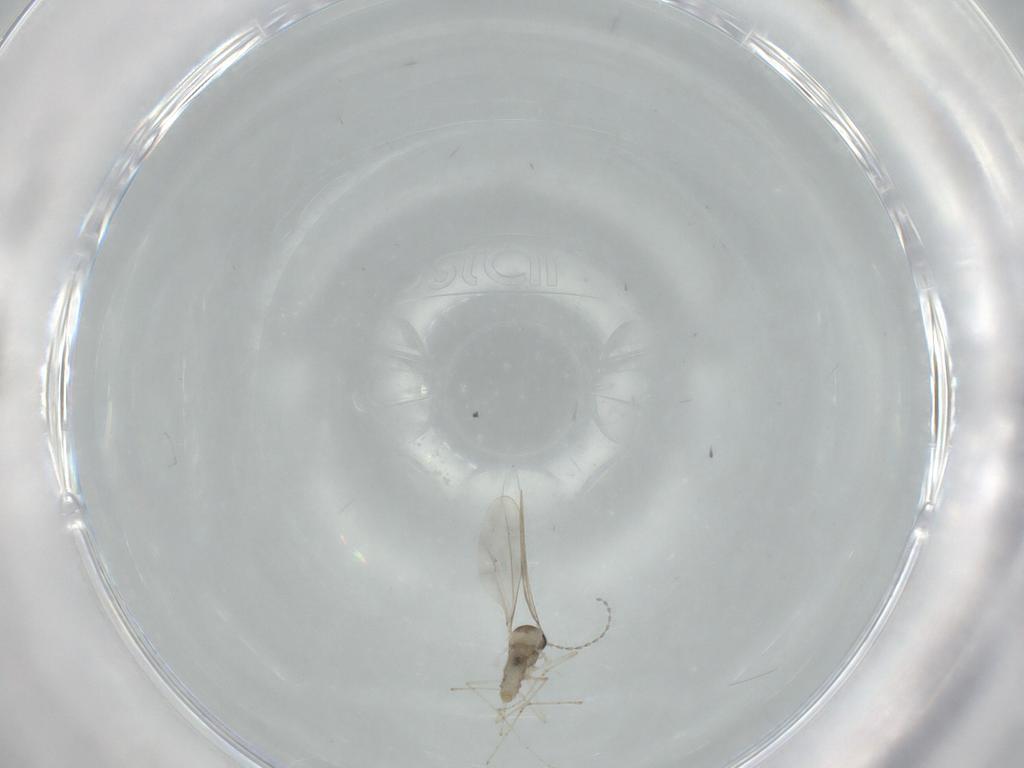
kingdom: Animalia
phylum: Arthropoda
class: Insecta
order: Diptera
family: Empididae
